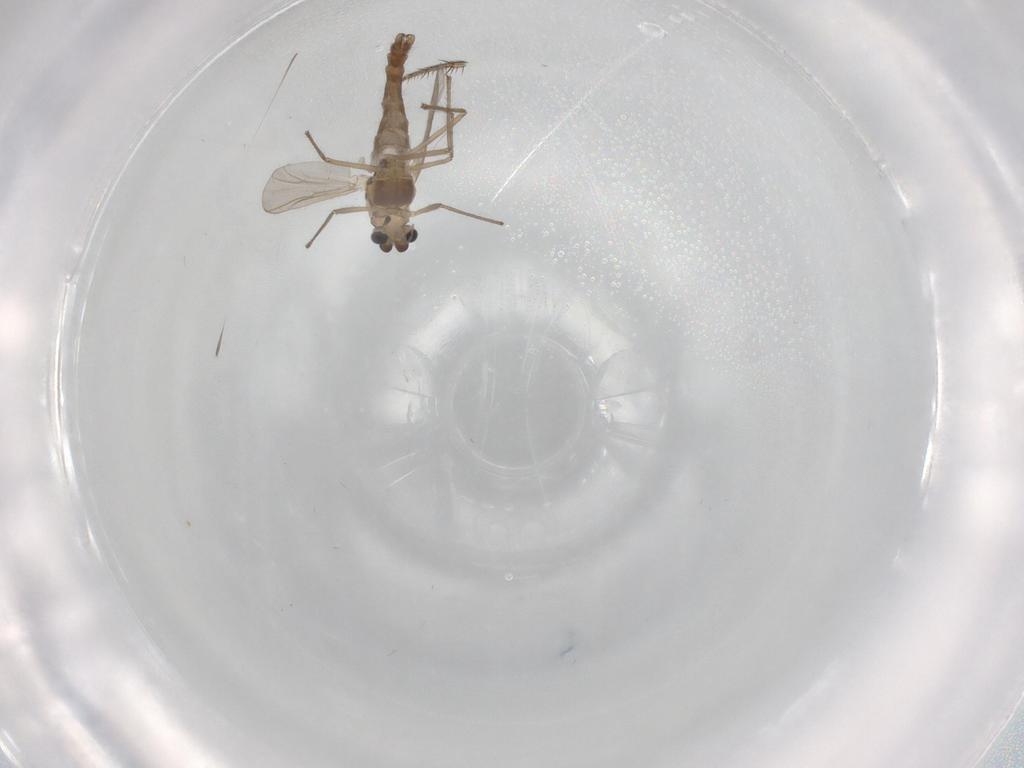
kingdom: Animalia
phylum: Arthropoda
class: Insecta
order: Diptera
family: Chironomidae
